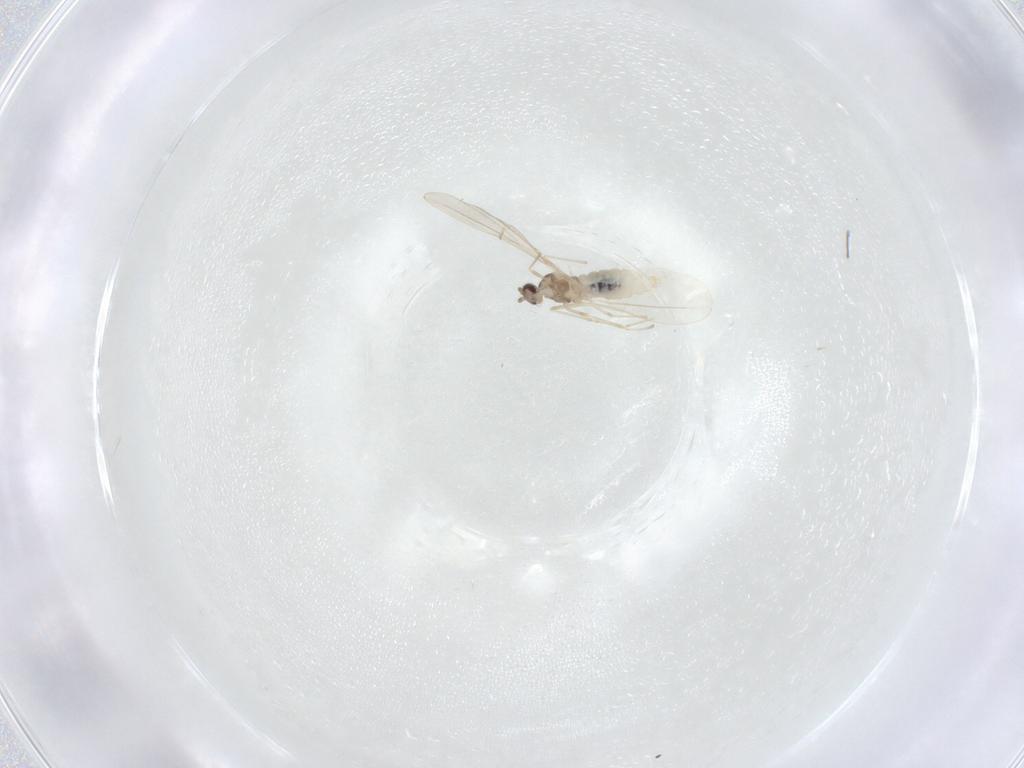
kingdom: Animalia
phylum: Arthropoda
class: Insecta
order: Diptera
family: Cecidomyiidae
